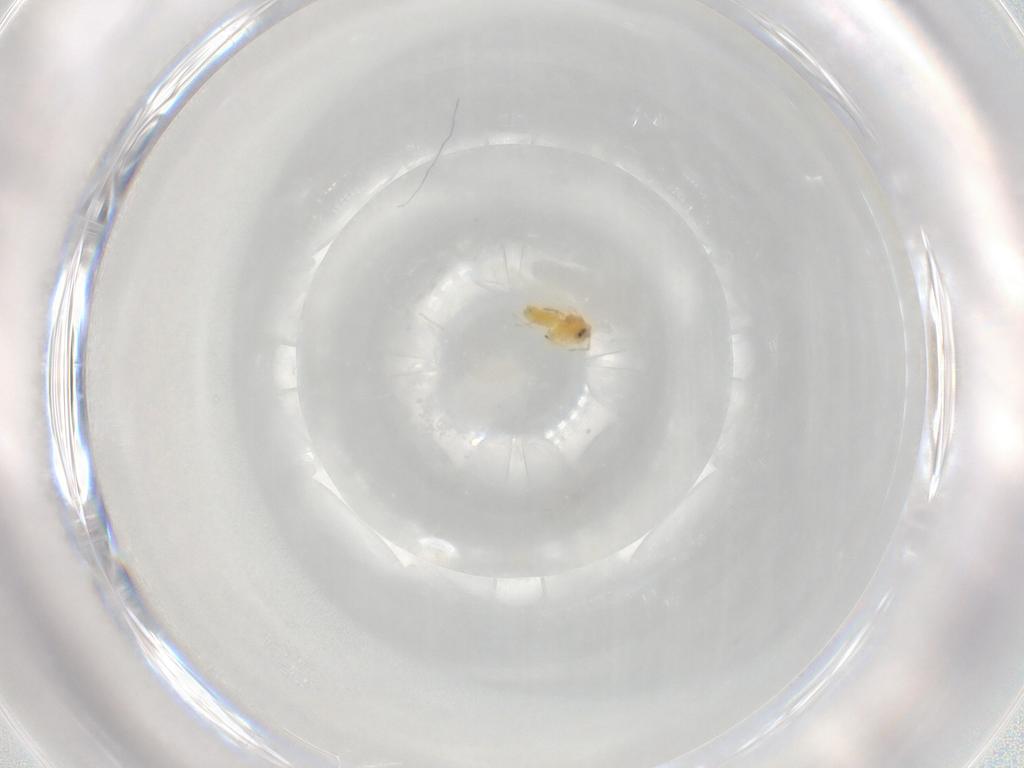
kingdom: Animalia
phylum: Arthropoda
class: Insecta
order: Hemiptera
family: Cicadellidae
